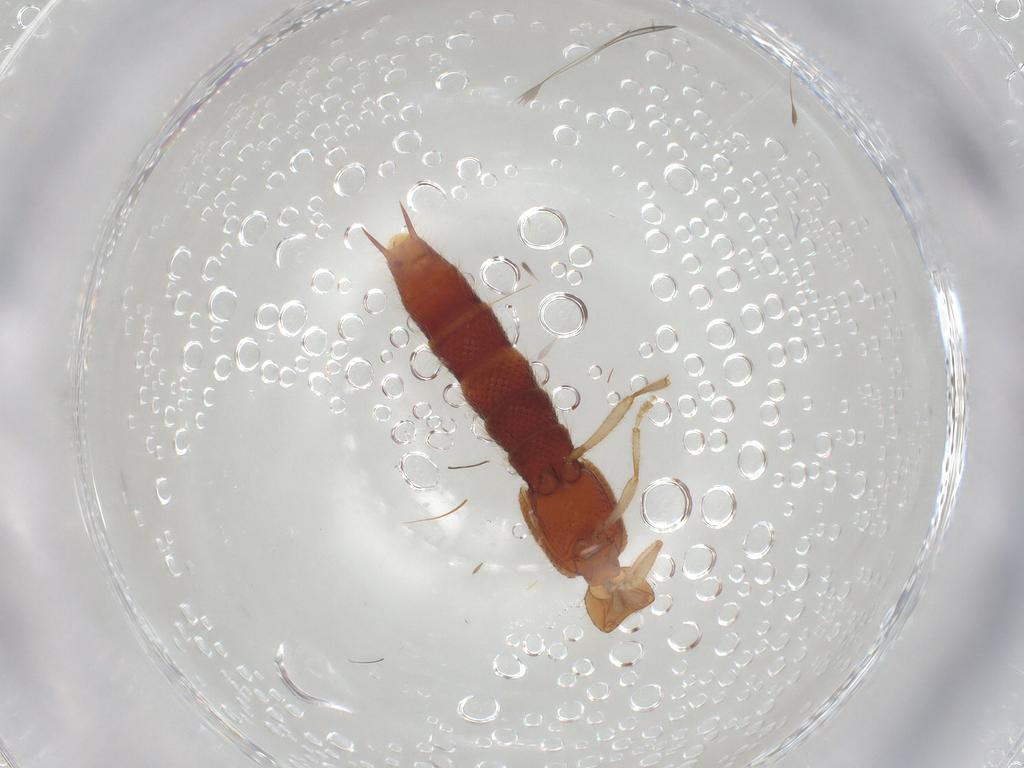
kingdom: Animalia
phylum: Arthropoda
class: Insecta
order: Coleoptera
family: Staphylinidae
